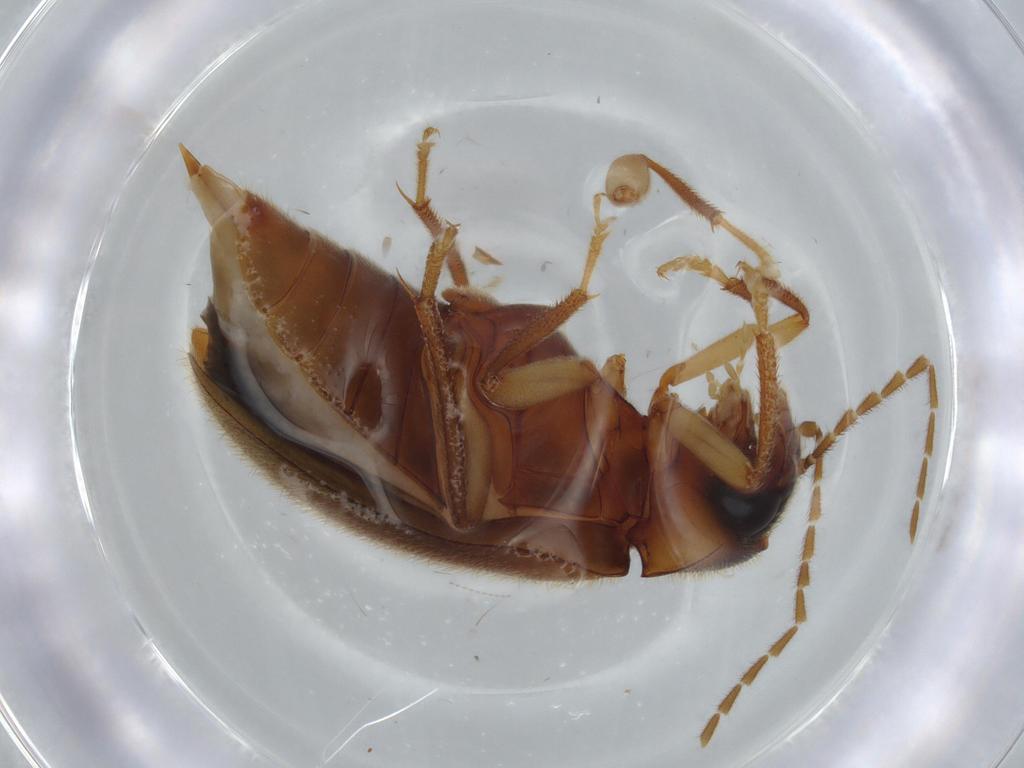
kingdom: Animalia
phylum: Arthropoda
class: Insecta
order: Coleoptera
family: Ptilodactylidae
